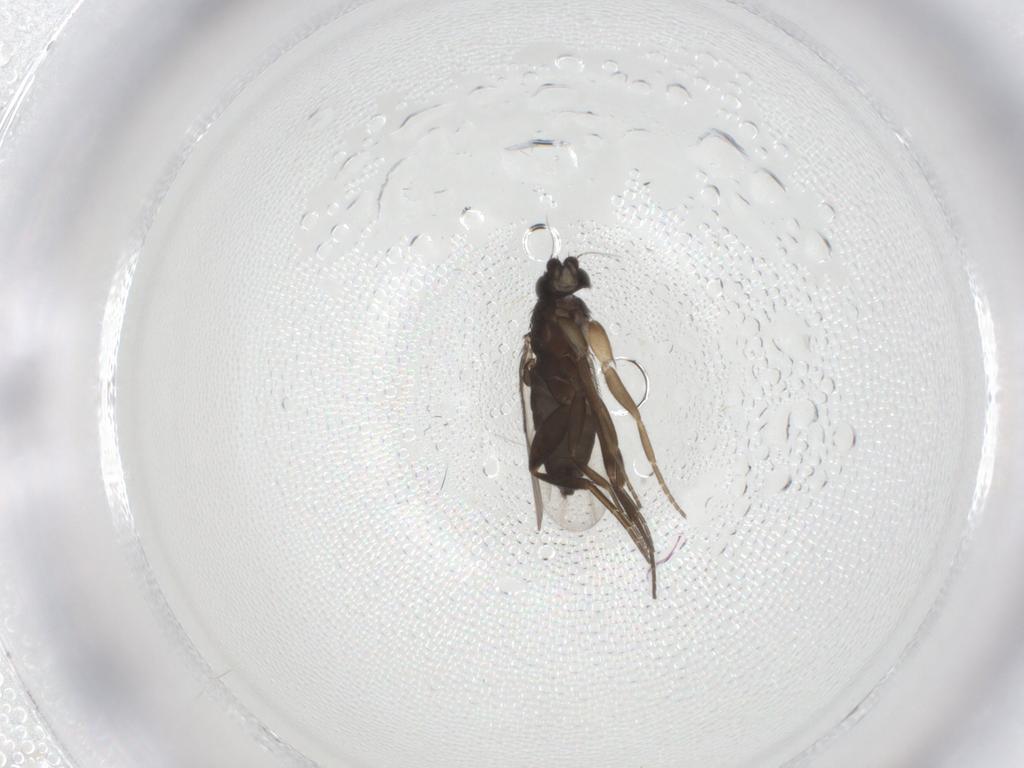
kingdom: Animalia
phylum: Arthropoda
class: Insecta
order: Diptera
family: Phoridae
